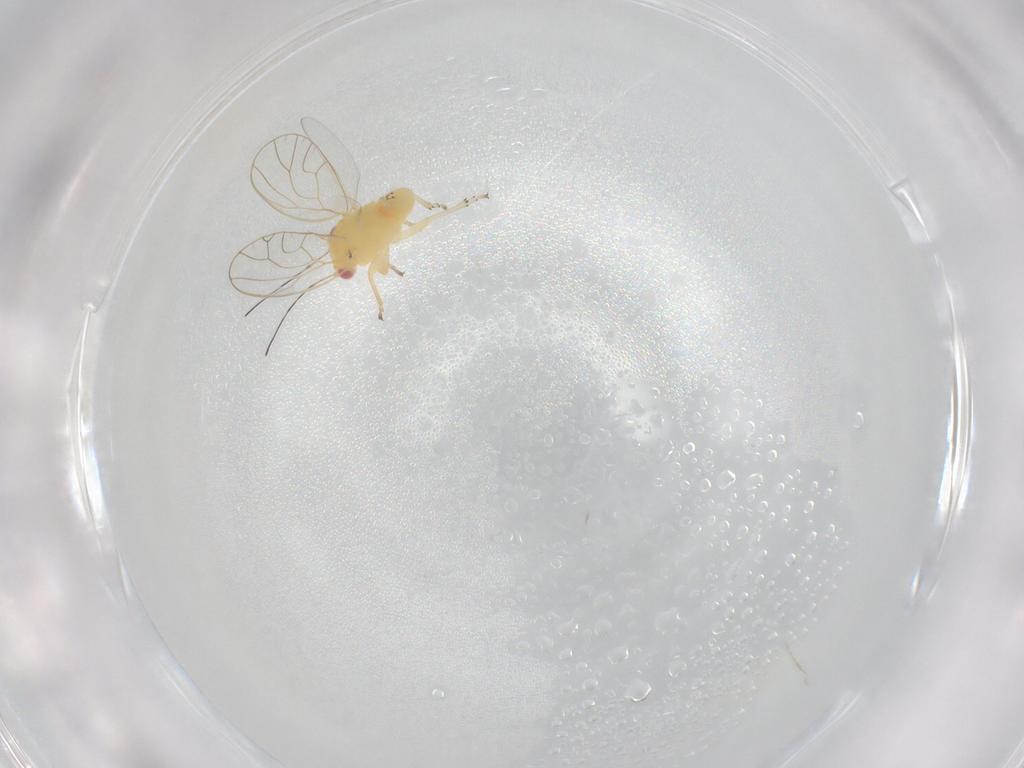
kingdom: Animalia
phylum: Arthropoda
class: Insecta
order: Hemiptera
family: Psyllidae
